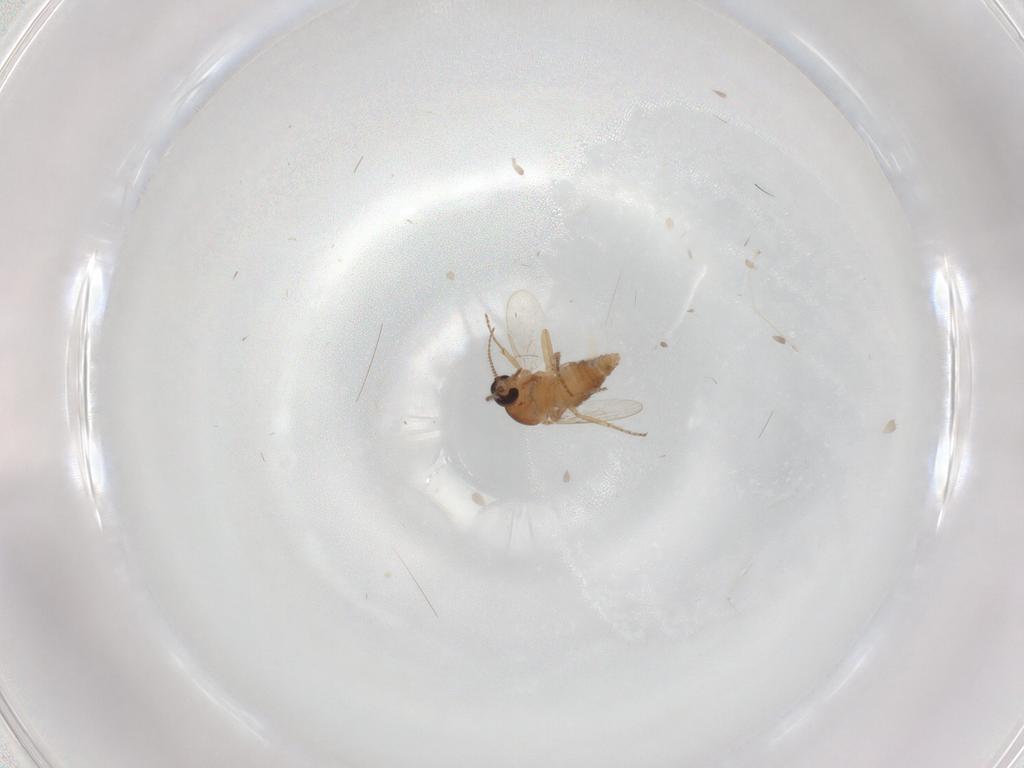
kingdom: Animalia
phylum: Arthropoda
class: Insecta
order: Diptera
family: Ceratopogonidae
